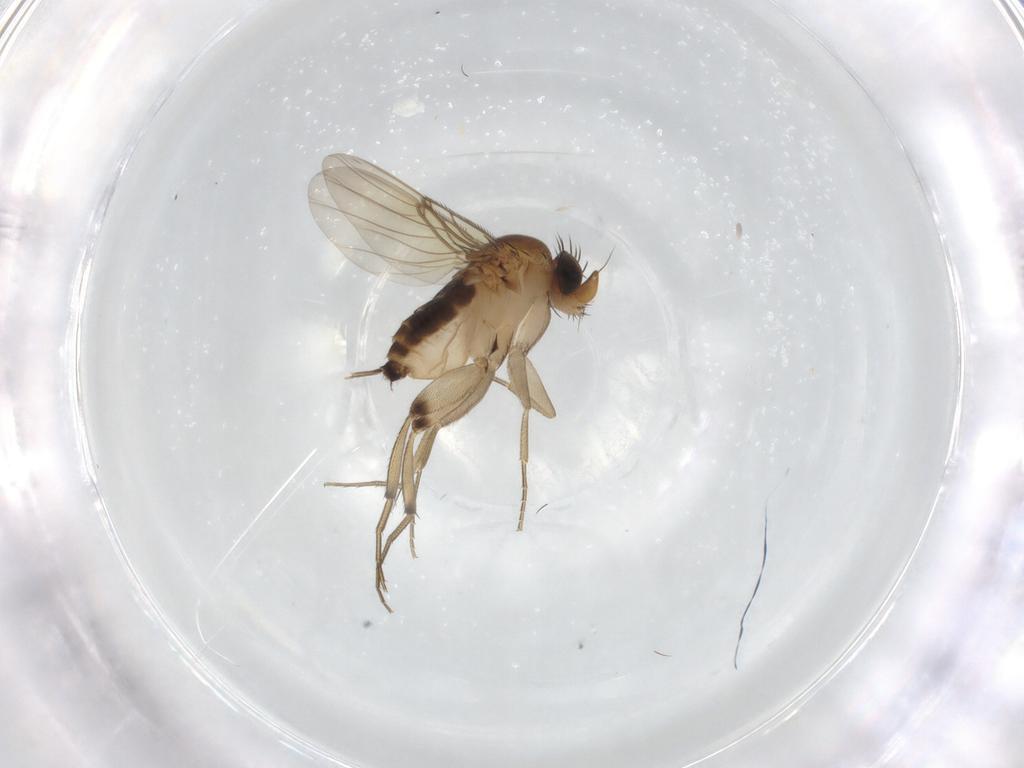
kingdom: Animalia
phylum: Arthropoda
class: Insecta
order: Diptera
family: Phoridae
